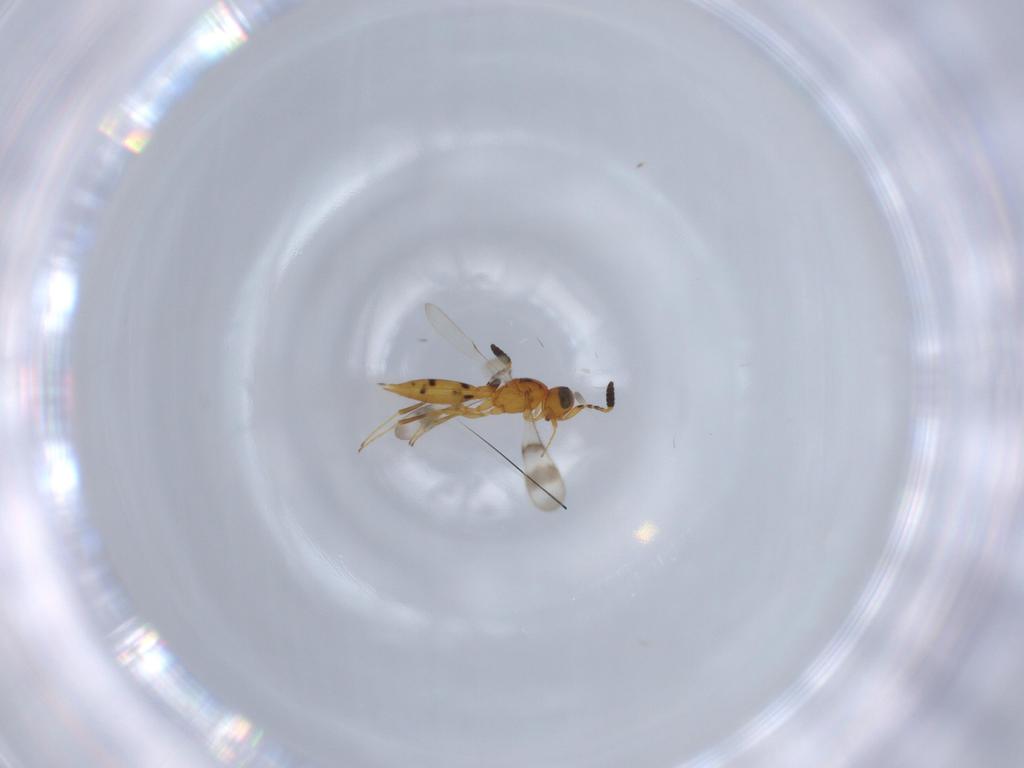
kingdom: Animalia
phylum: Arthropoda
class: Insecta
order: Hymenoptera
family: Scelionidae
